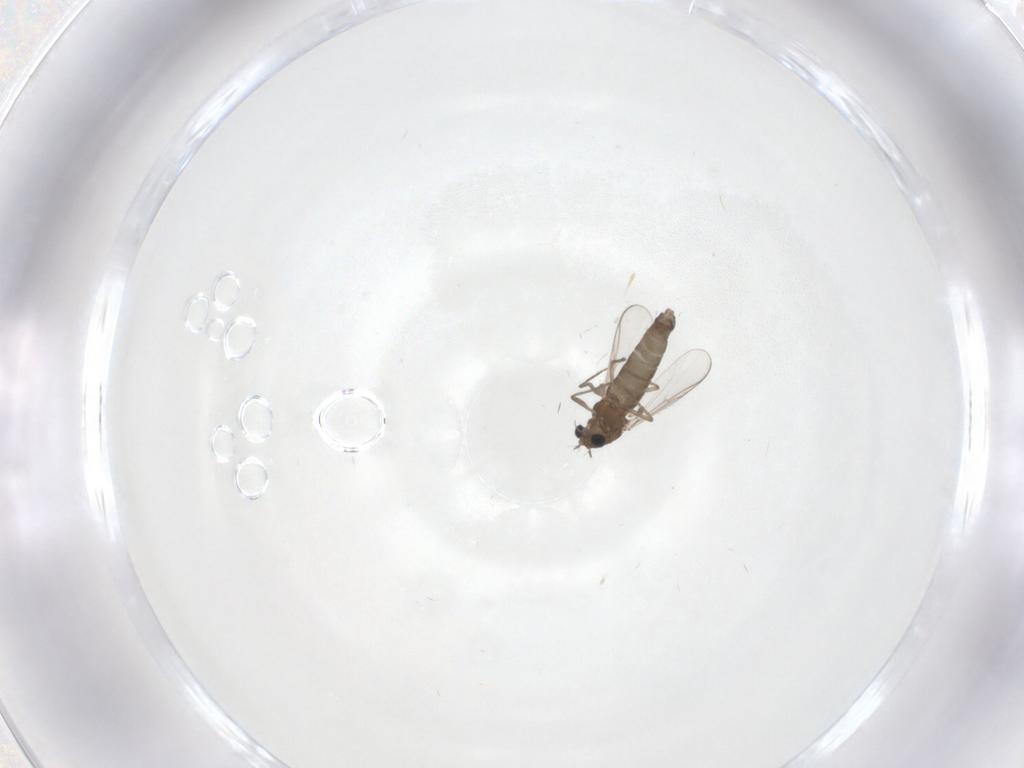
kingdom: Animalia
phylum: Arthropoda
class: Insecta
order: Diptera
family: Chironomidae
